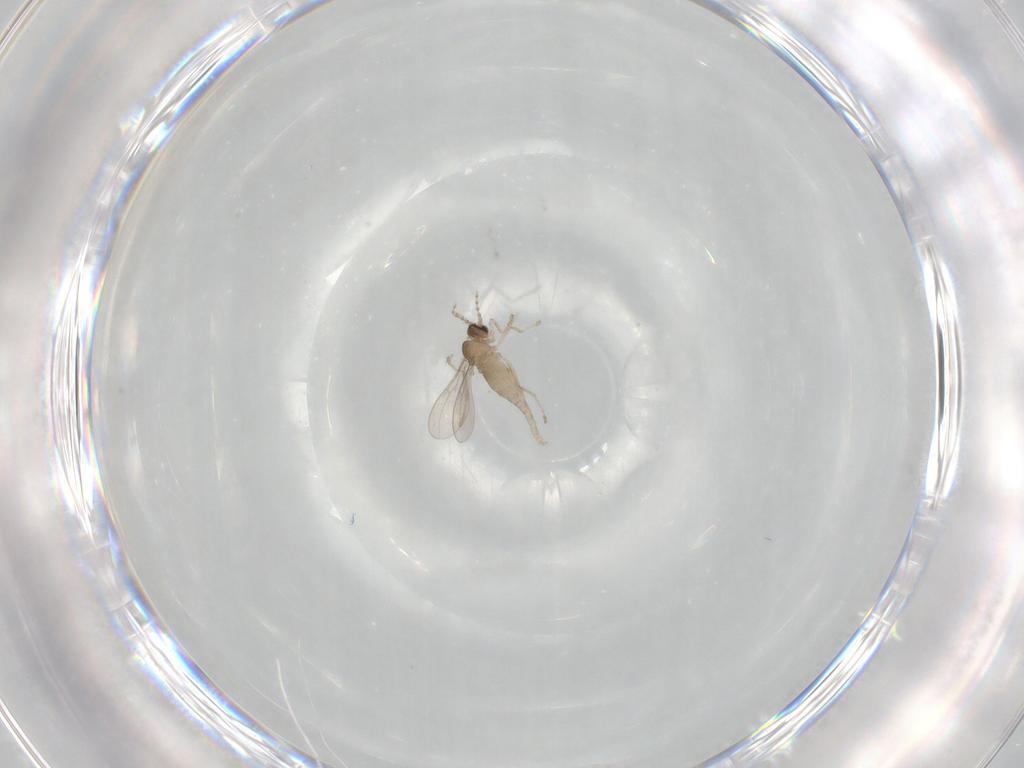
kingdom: Animalia
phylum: Arthropoda
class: Insecta
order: Diptera
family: Cecidomyiidae
